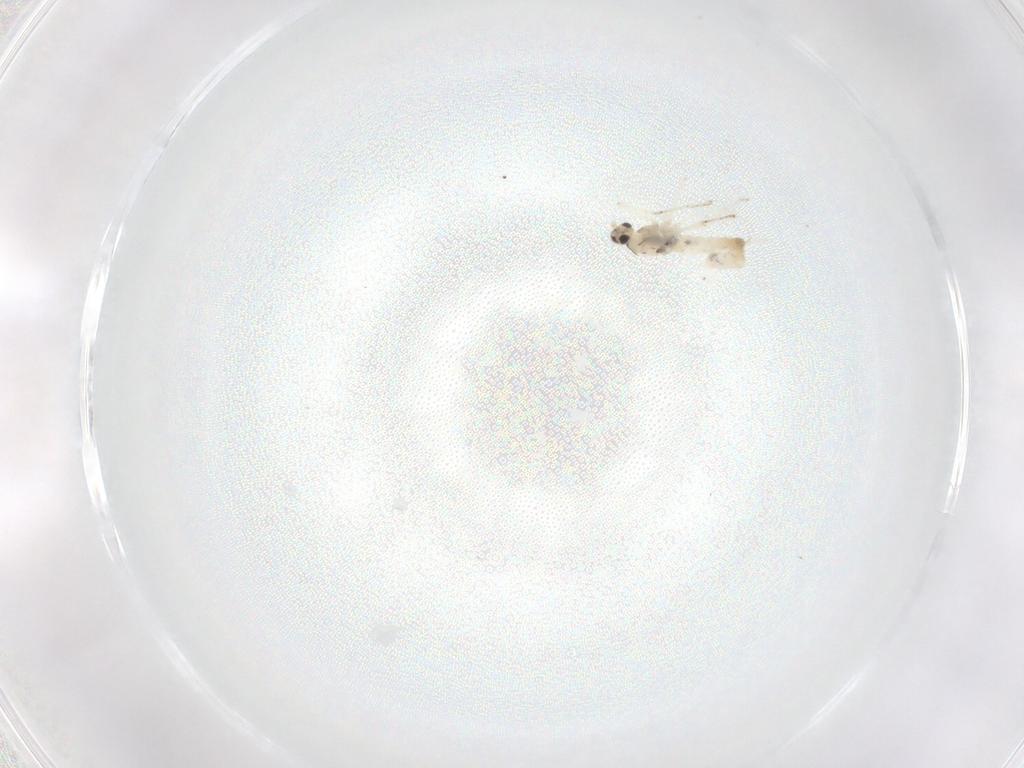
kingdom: Animalia
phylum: Arthropoda
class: Insecta
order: Diptera
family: Cecidomyiidae
